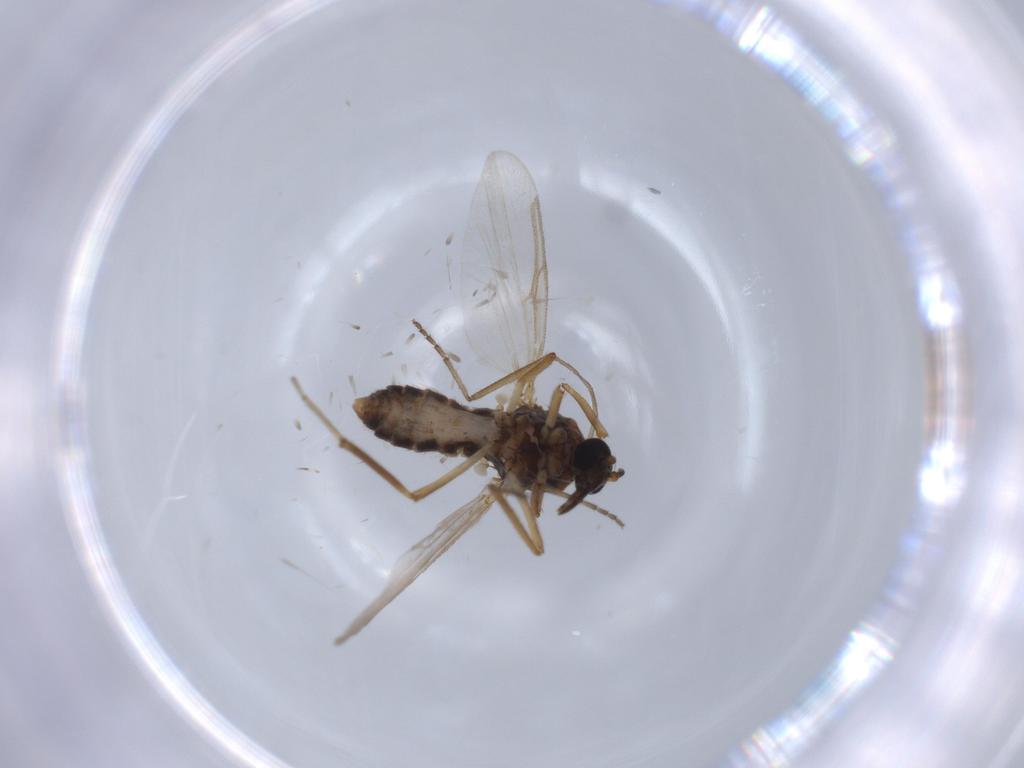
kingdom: Animalia
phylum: Arthropoda
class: Insecta
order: Diptera
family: Ceratopogonidae
